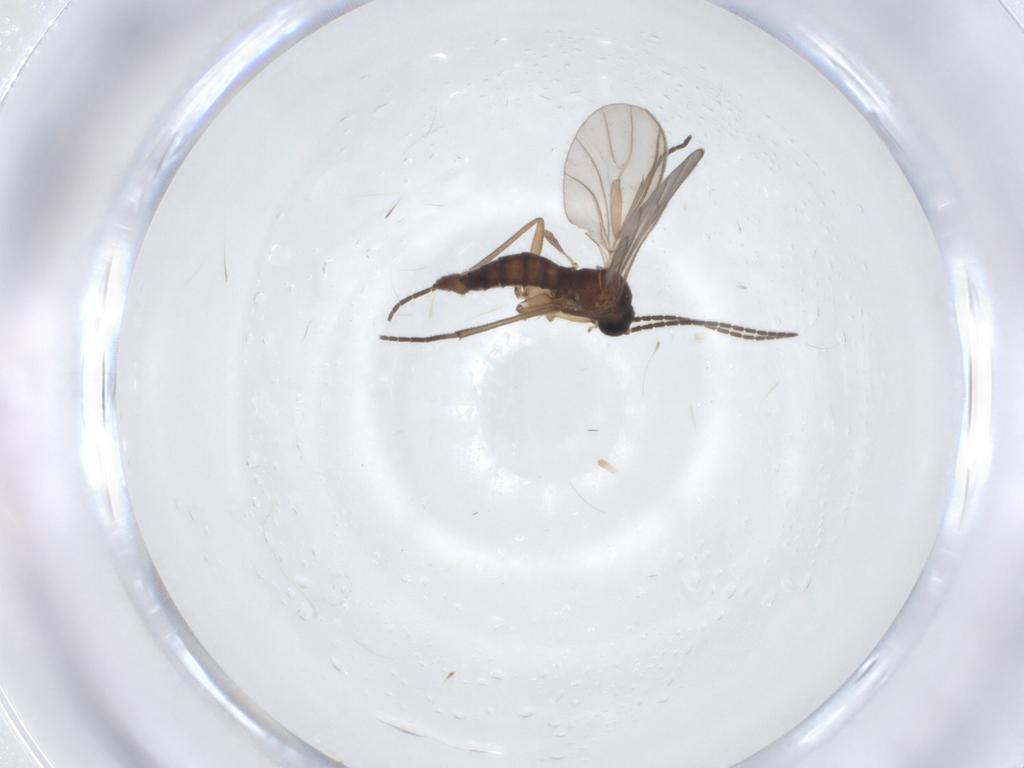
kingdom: Animalia
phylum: Arthropoda
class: Insecta
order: Diptera
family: Sciaridae
